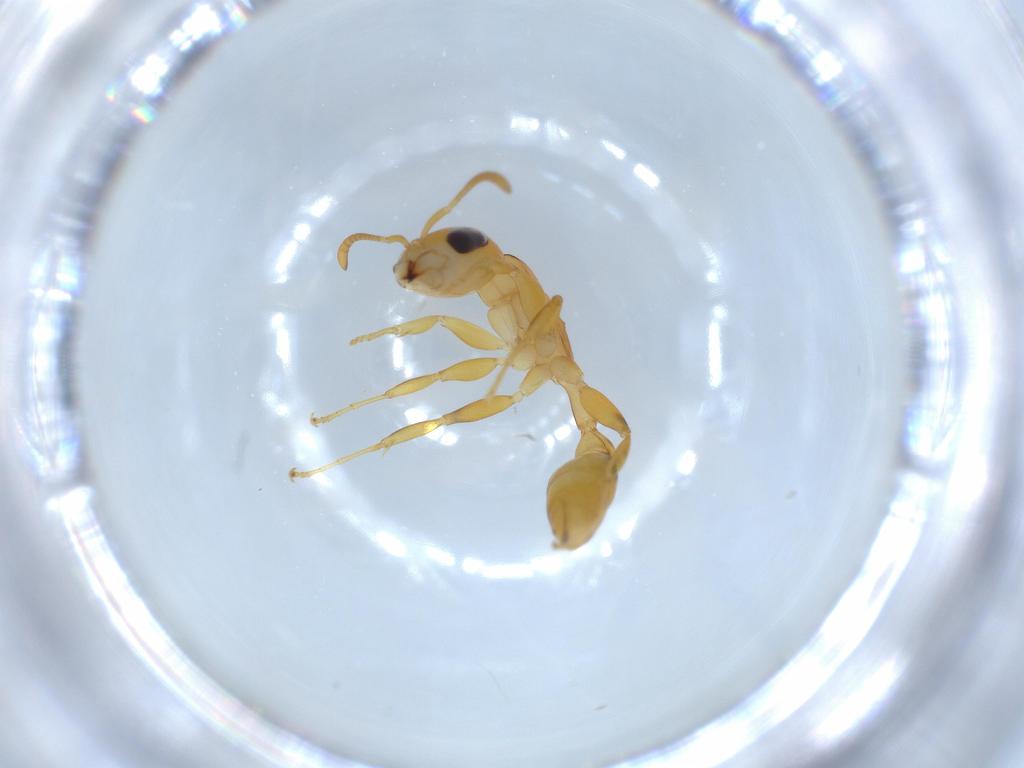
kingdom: Animalia
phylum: Arthropoda
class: Insecta
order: Hymenoptera
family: Formicidae
